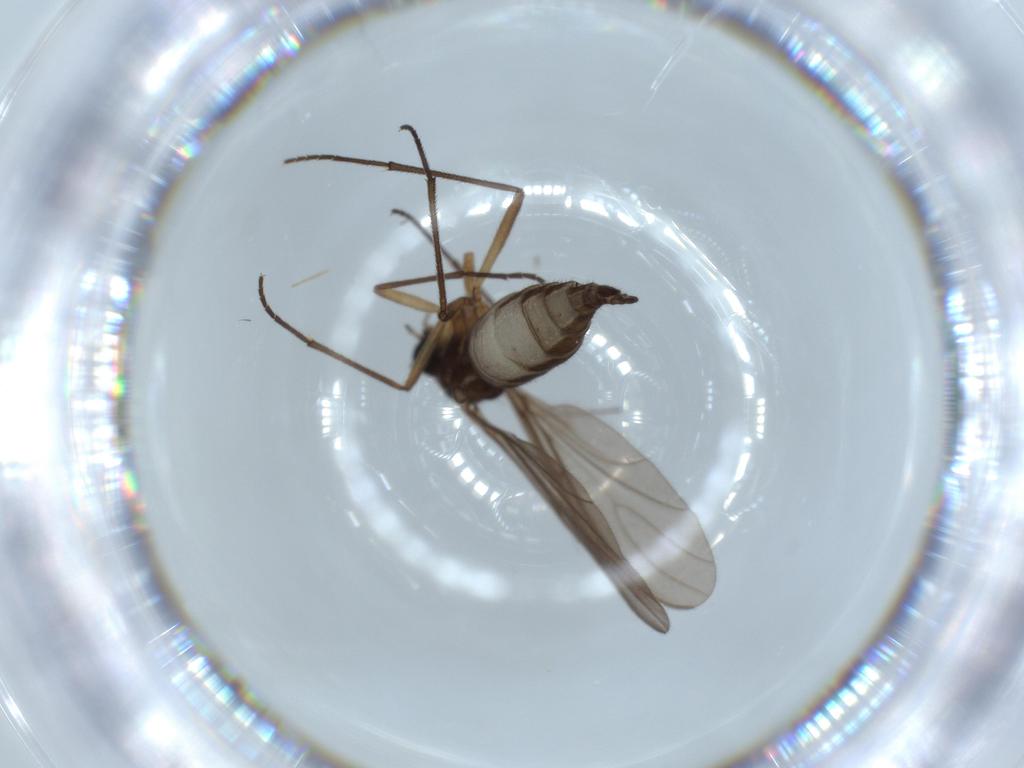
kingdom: Animalia
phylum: Arthropoda
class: Insecta
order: Diptera
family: Sciaridae
